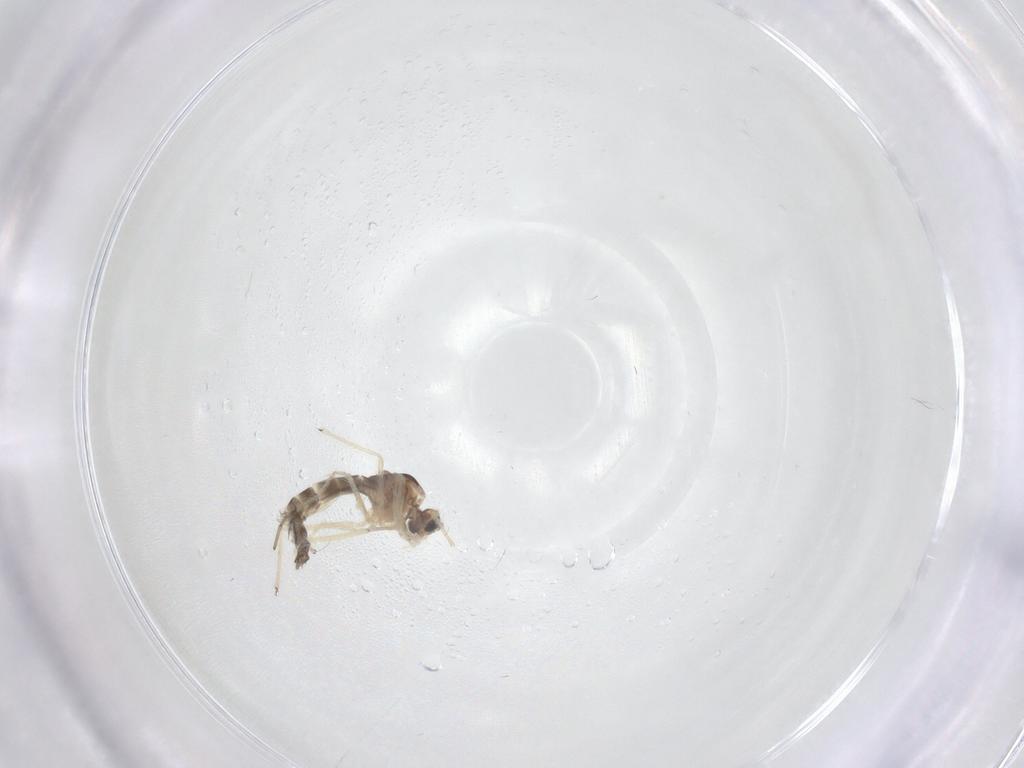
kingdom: Animalia
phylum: Arthropoda
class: Insecta
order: Diptera
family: Chironomidae
